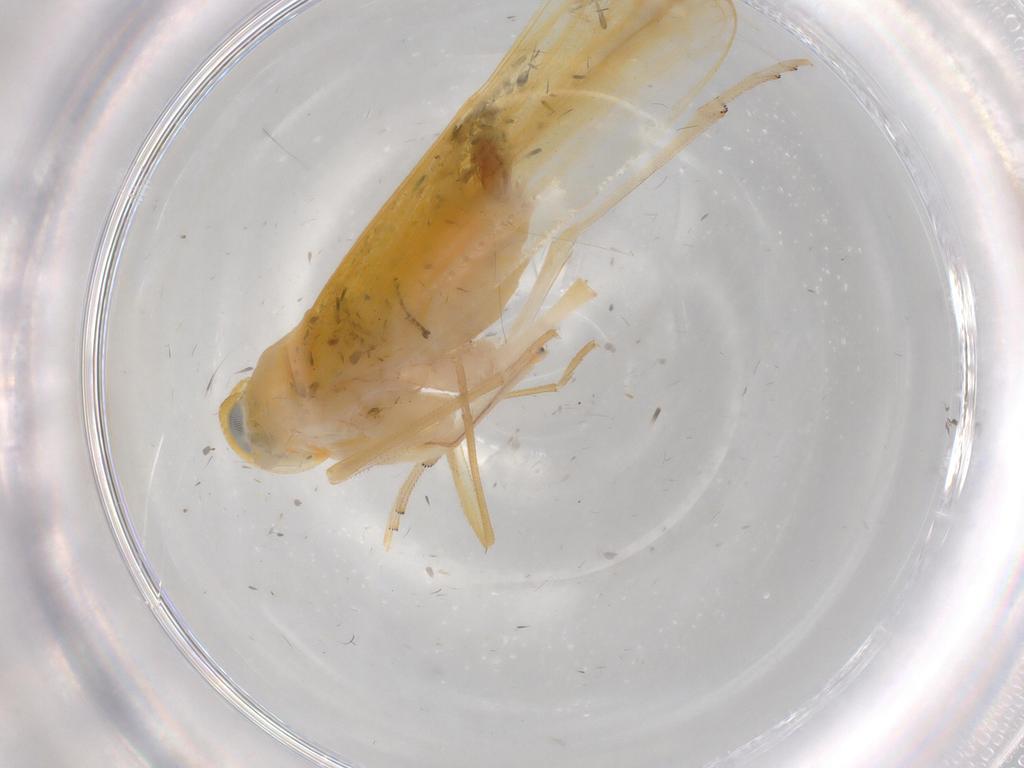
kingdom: Animalia
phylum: Arthropoda
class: Insecta
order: Hemiptera
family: Derbidae
